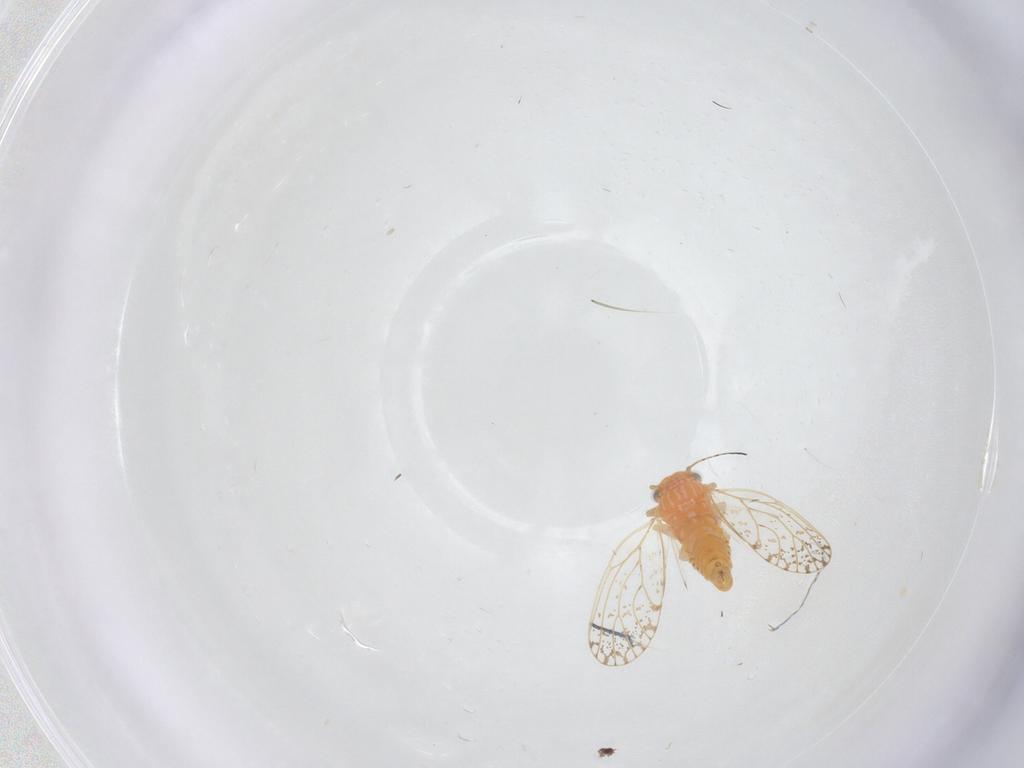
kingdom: Animalia
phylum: Arthropoda
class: Insecta
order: Hemiptera
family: Psyllidae
